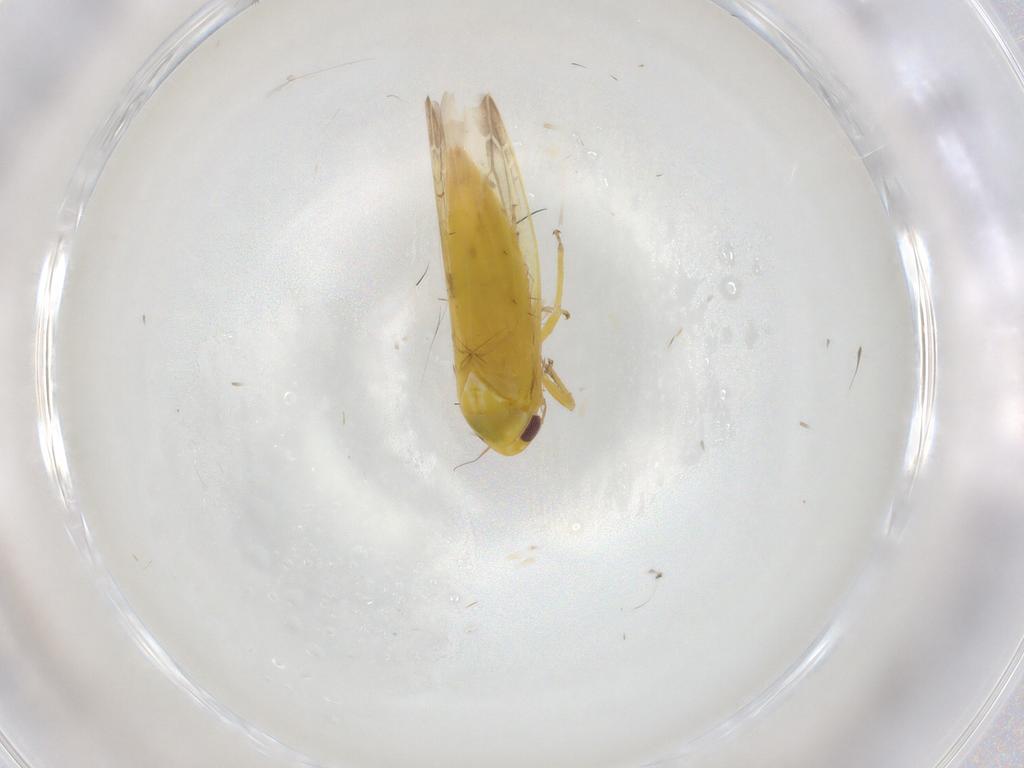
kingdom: Animalia
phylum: Arthropoda
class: Insecta
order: Hemiptera
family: Cicadellidae
